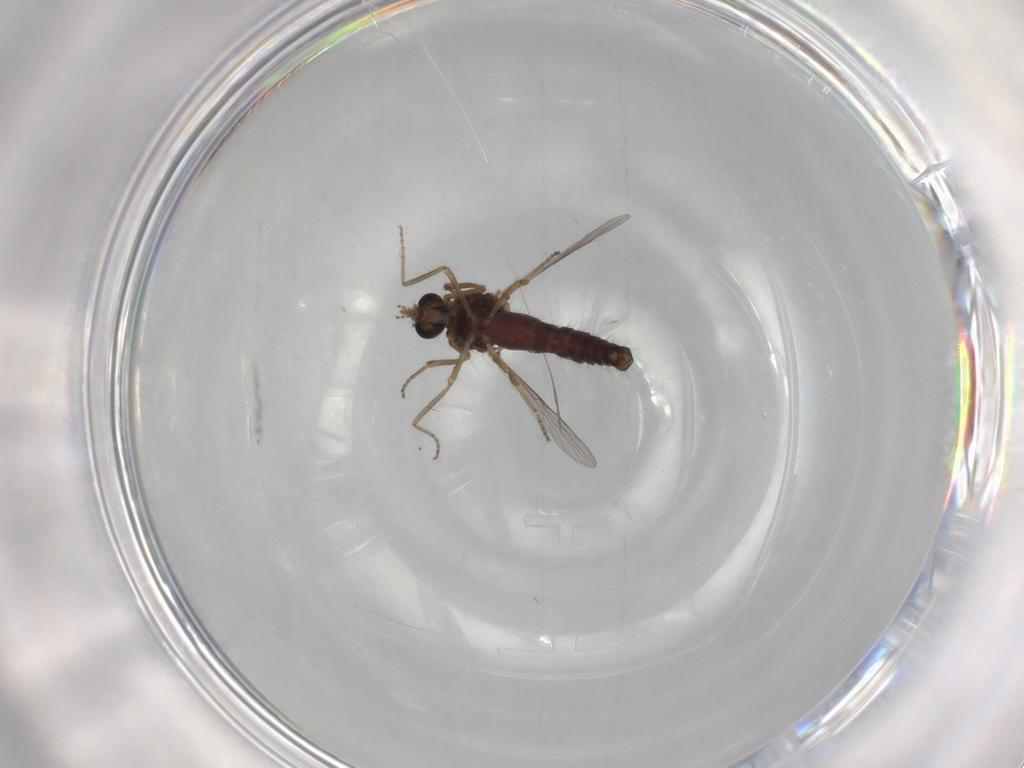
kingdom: Animalia
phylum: Arthropoda
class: Insecta
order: Diptera
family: Ceratopogonidae
